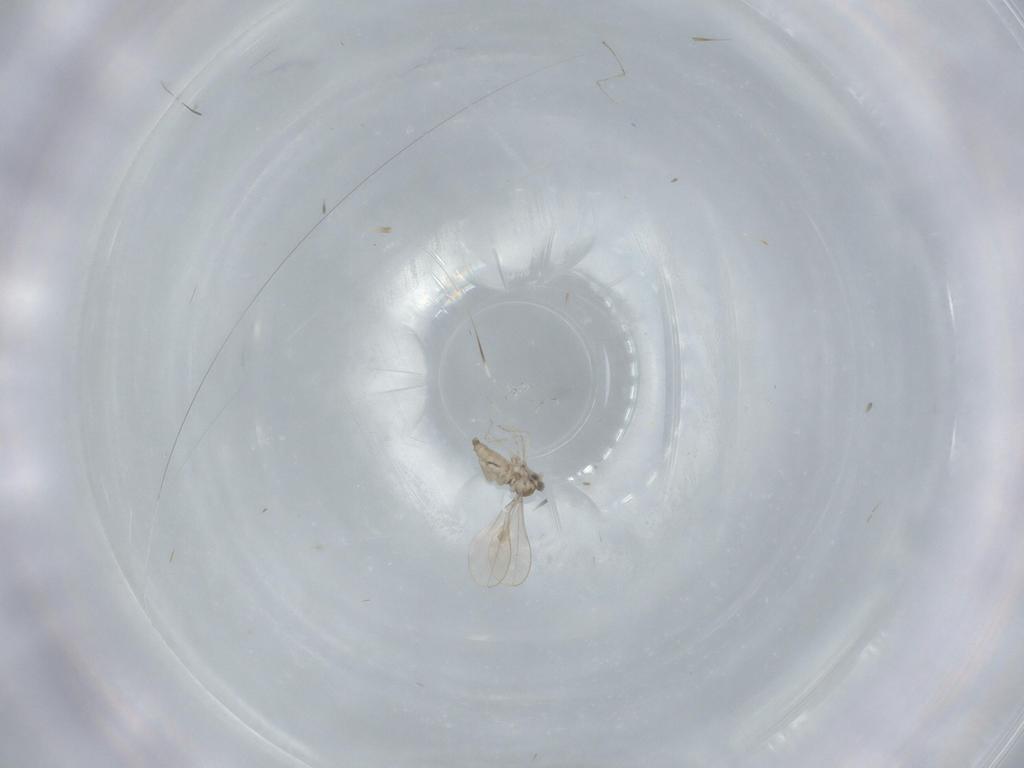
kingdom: Animalia
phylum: Arthropoda
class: Insecta
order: Diptera
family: Cecidomyiidae
